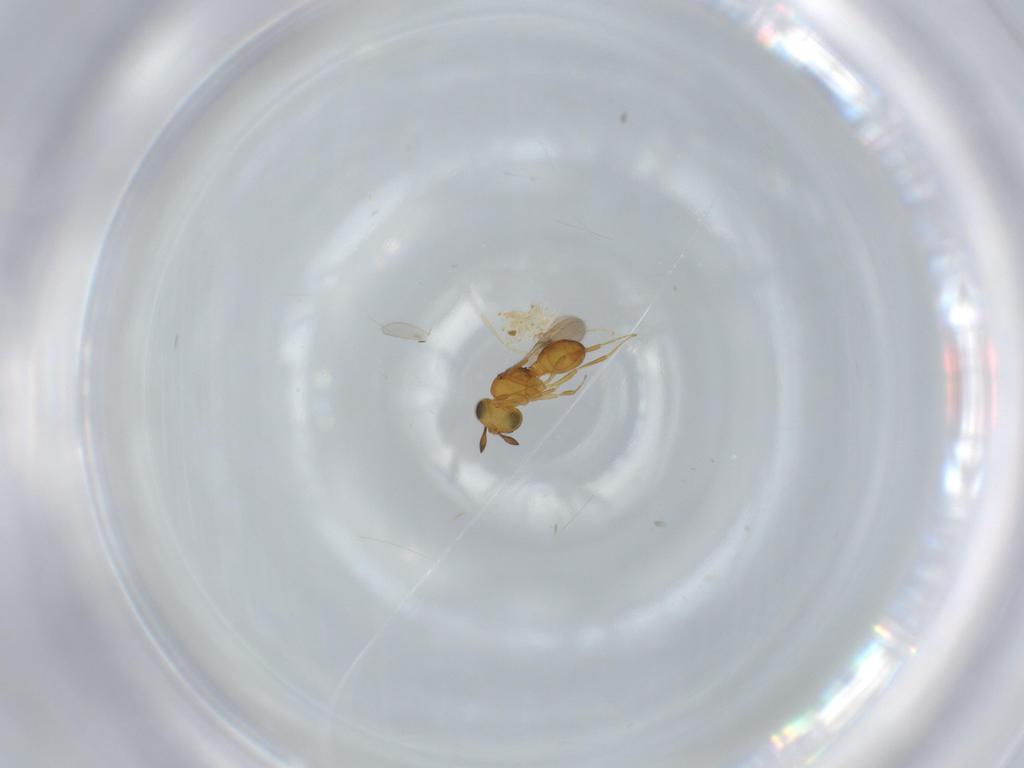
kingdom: Animalia
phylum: Arthropoda
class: Insecta
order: Hymenoptera
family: Scelionidae
